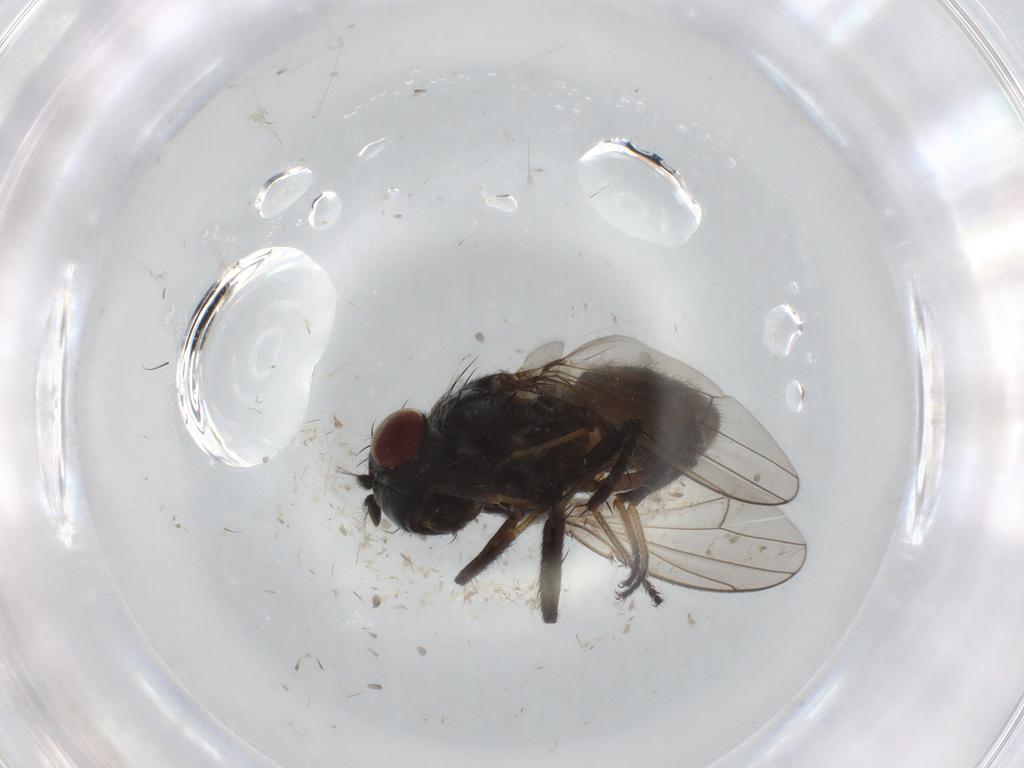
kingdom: Animalia
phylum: Arthropoda
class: Insecta
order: Diptera
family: Ephydridae
